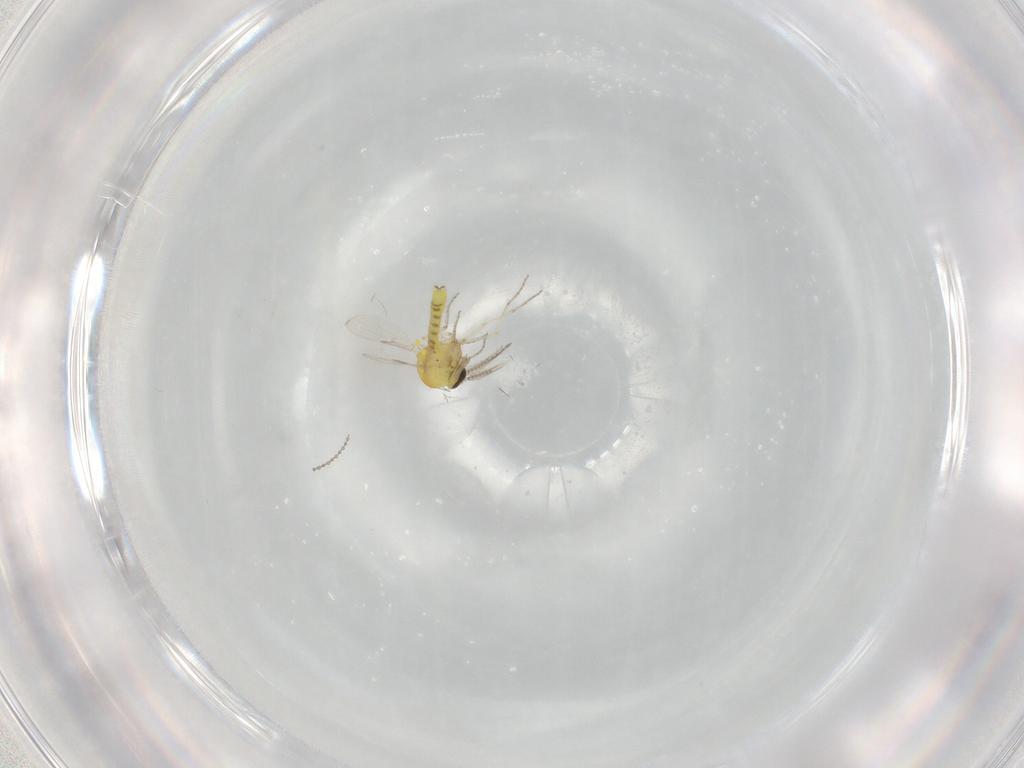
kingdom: Animalia
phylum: Arthropoda
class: Insecta
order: Diptera
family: Ceratopogonidae
